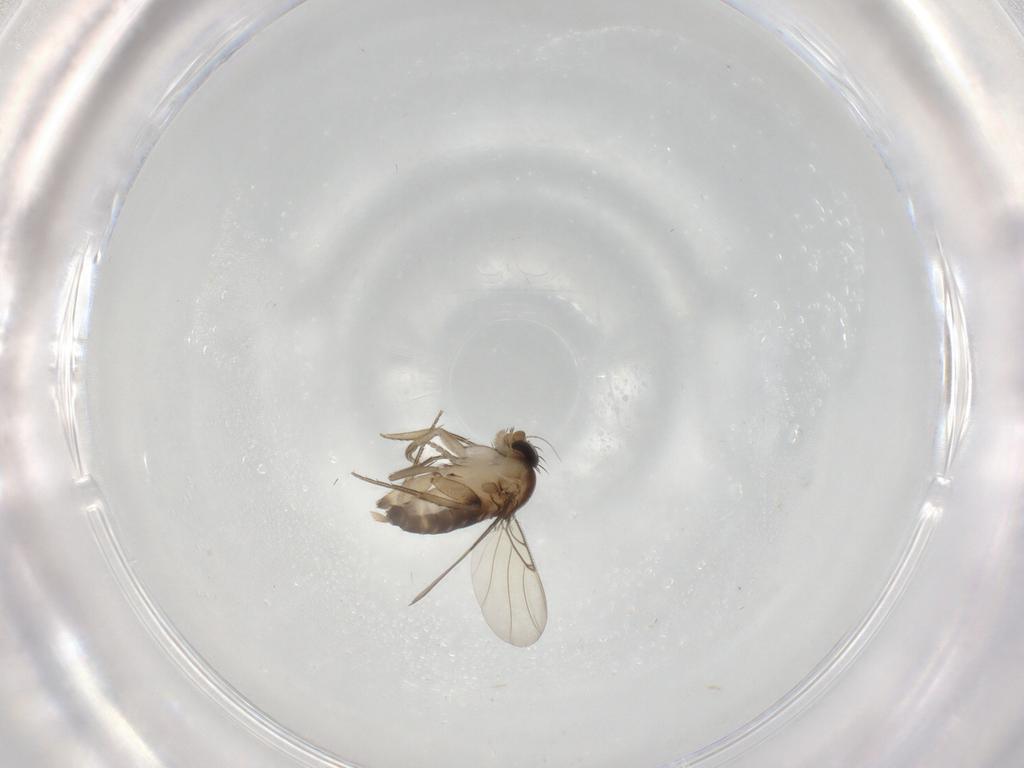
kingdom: Animalia
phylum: Arthropoda
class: Insecta
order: Diptera
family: Phoridae
